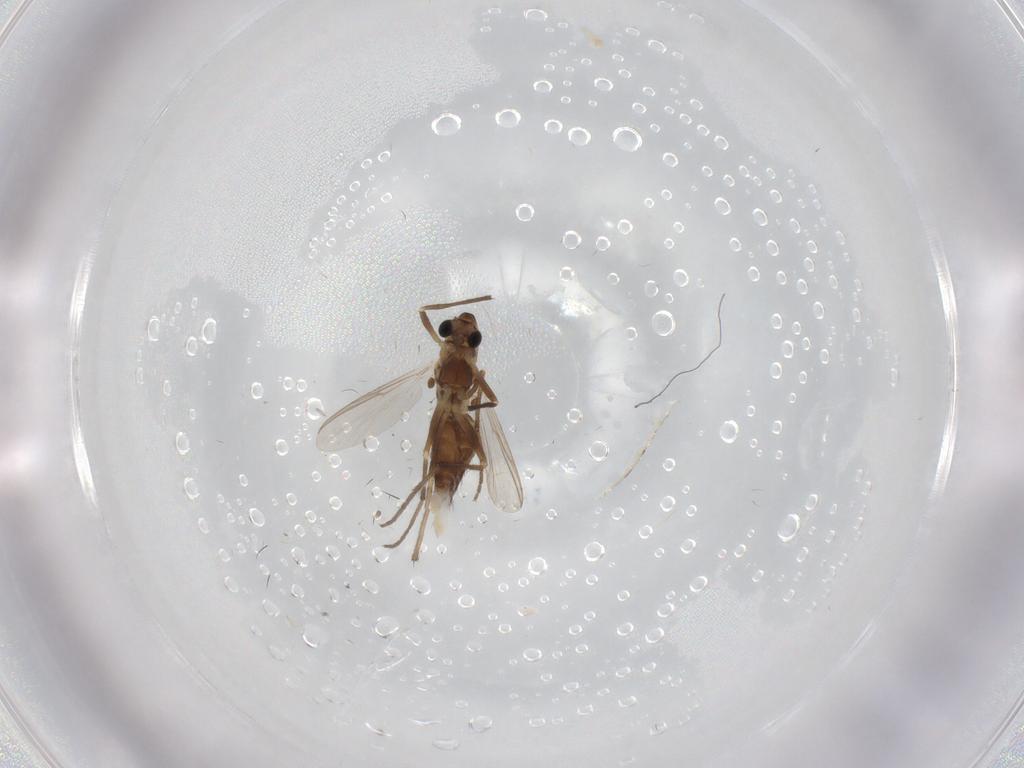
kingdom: Animalia
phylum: Arthropoda
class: Insecta
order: Diptera
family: Chironomidae
